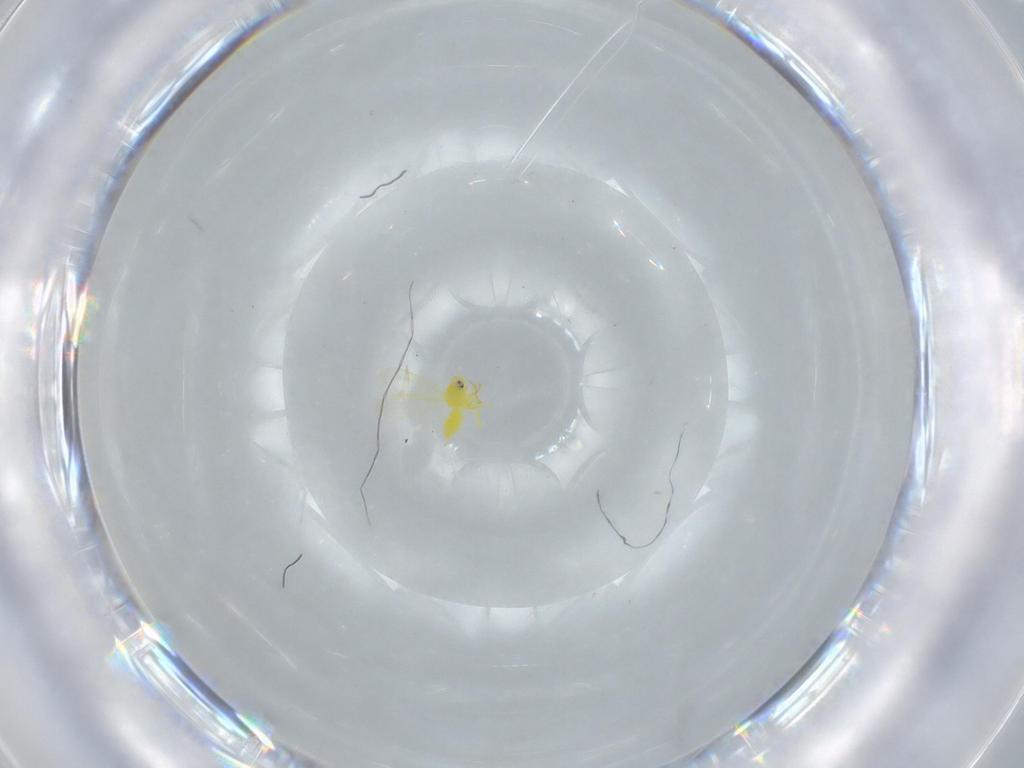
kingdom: Animalia
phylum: Arthropoda
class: Insecta
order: Hemiptera
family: Aleyrodidae
